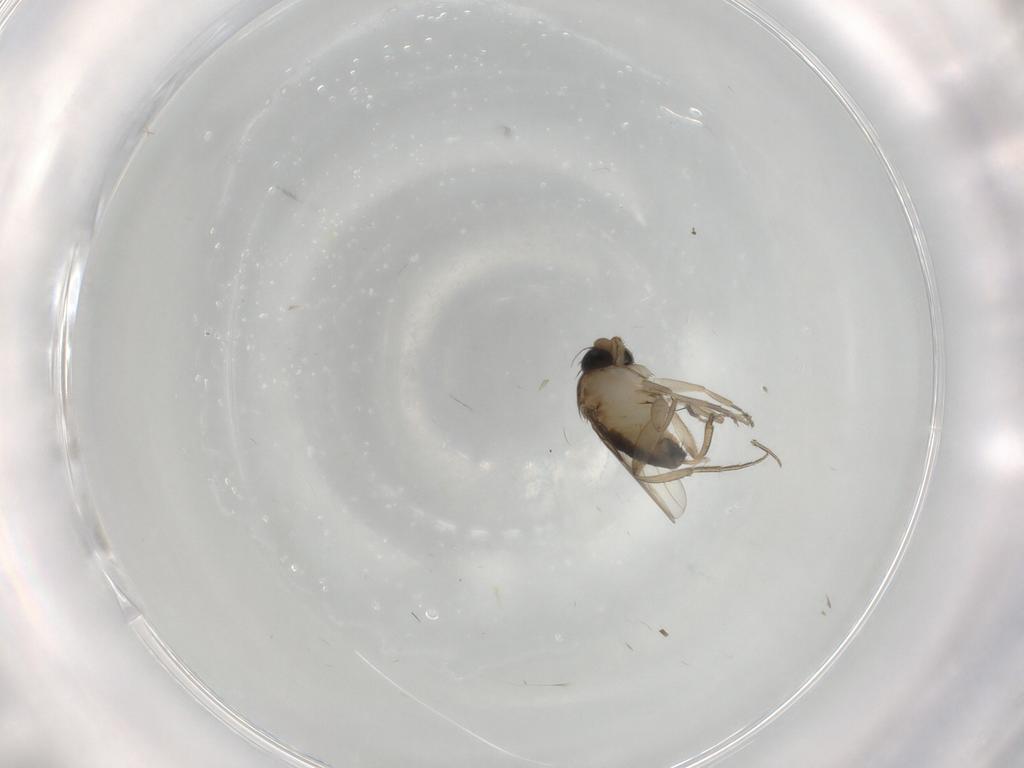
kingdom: Animalia
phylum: Arthropoda
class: Insecta
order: Diptera
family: Phoridae
